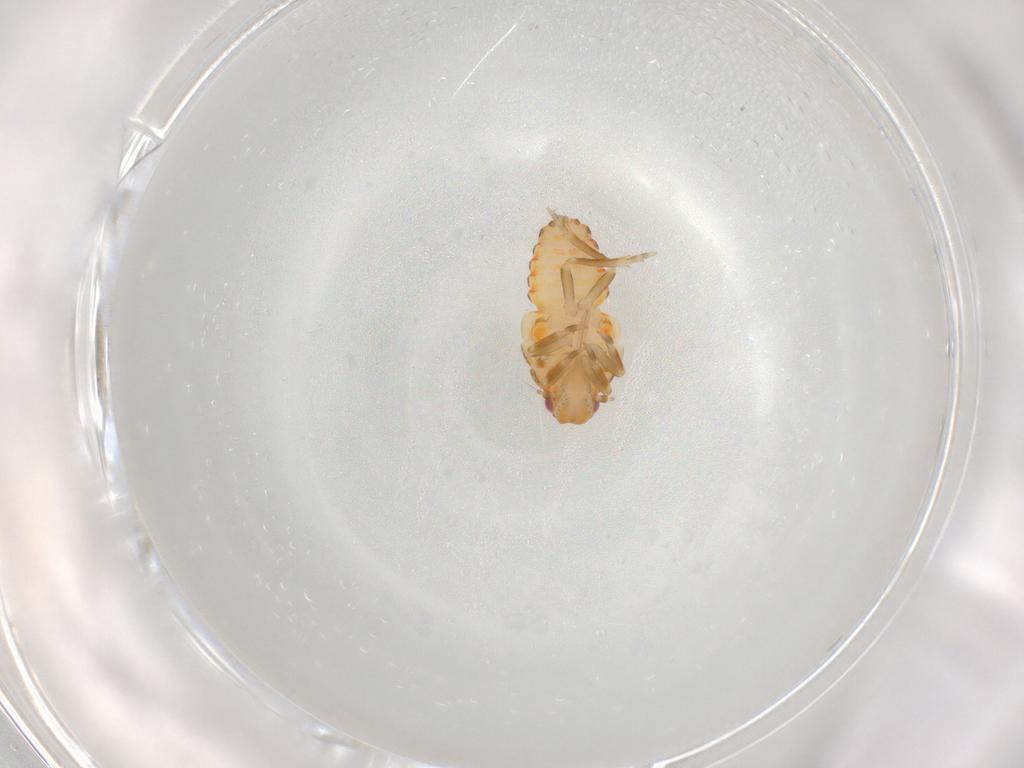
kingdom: Animalia
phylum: Arthropoda
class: Insecta
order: Hemiptera
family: Flatidae
